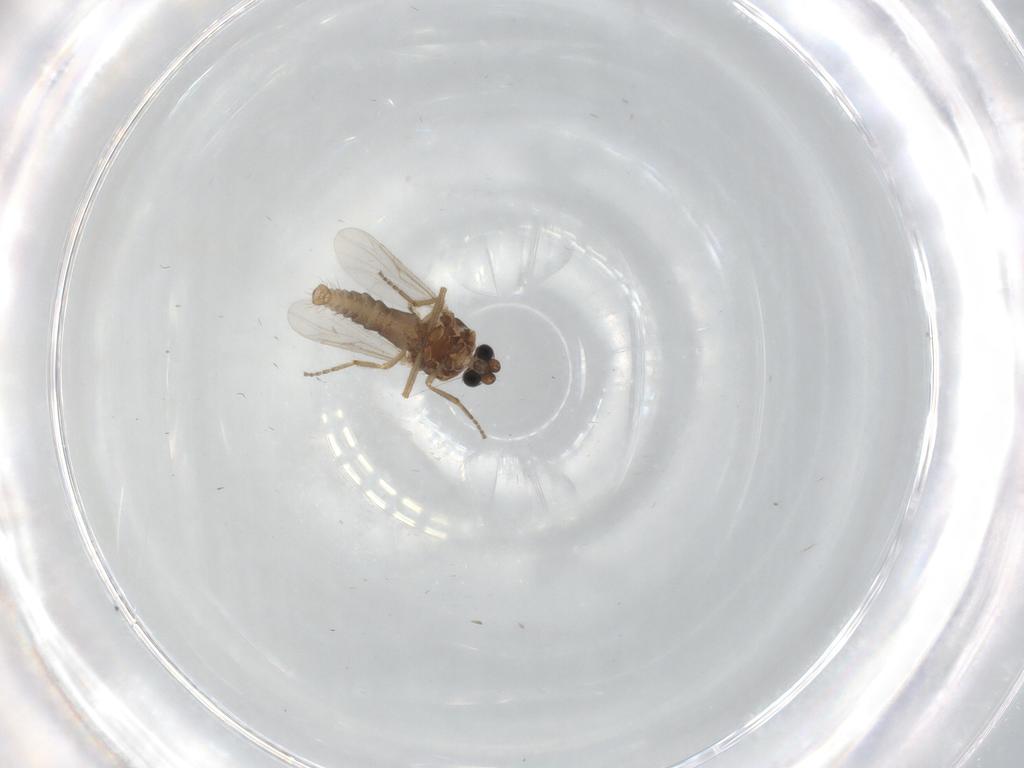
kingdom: Animalia
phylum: Arthropoda
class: Insecta
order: Diptera
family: Ceratopogonidae
